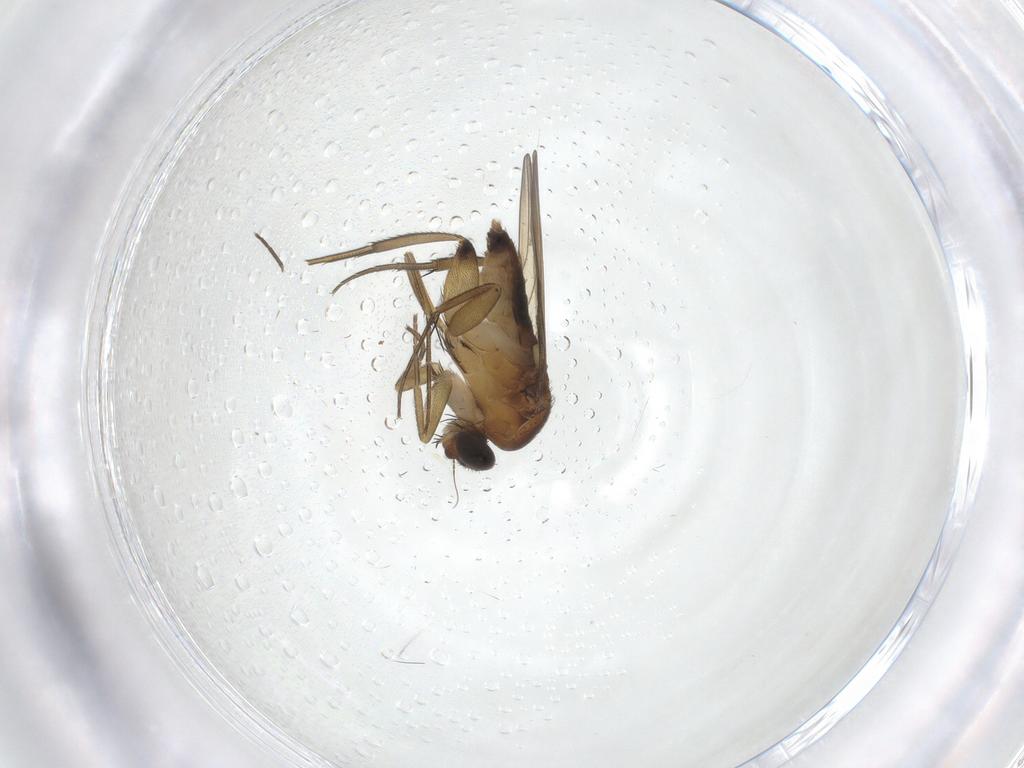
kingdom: Animalia
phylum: Arthropoda
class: Insecta
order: Diptera
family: Phoridae
